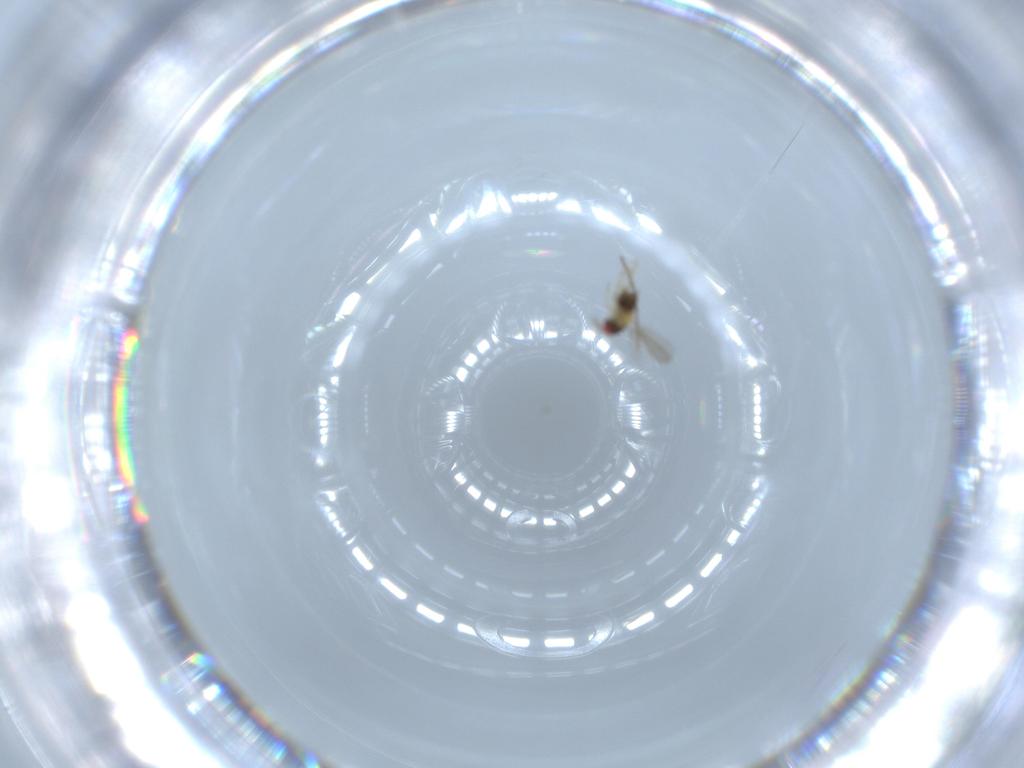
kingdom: Animalia
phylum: Arthropoda
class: Insecta
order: Hymenoptera
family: Aphelinidae
